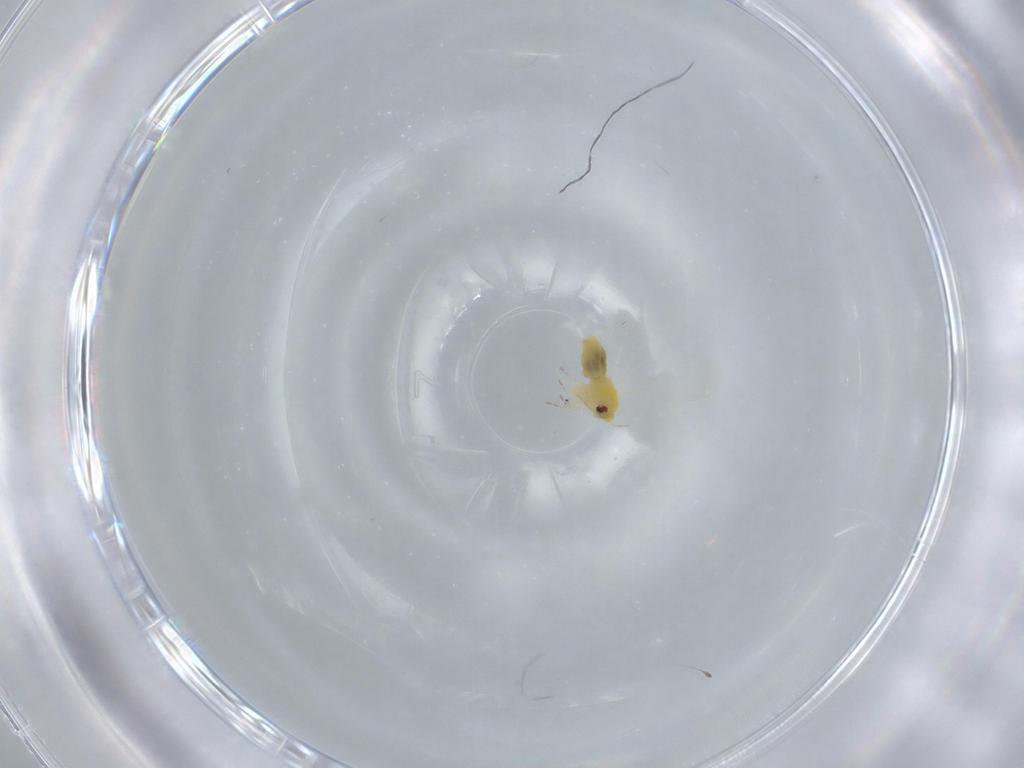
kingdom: Animalia
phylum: Arthropoda
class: Insecta
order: Hemiptera
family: Aleyrodidae
